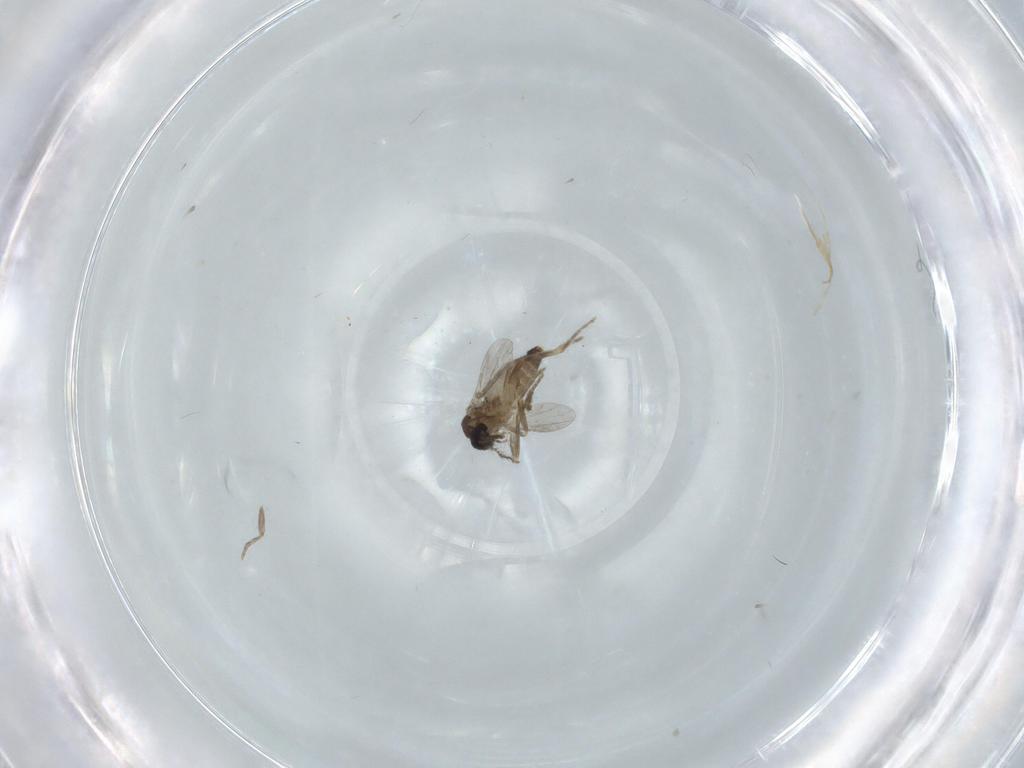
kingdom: Animalia
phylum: Arthropoda
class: Insecta
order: Diptera
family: Ceratopogonidae
